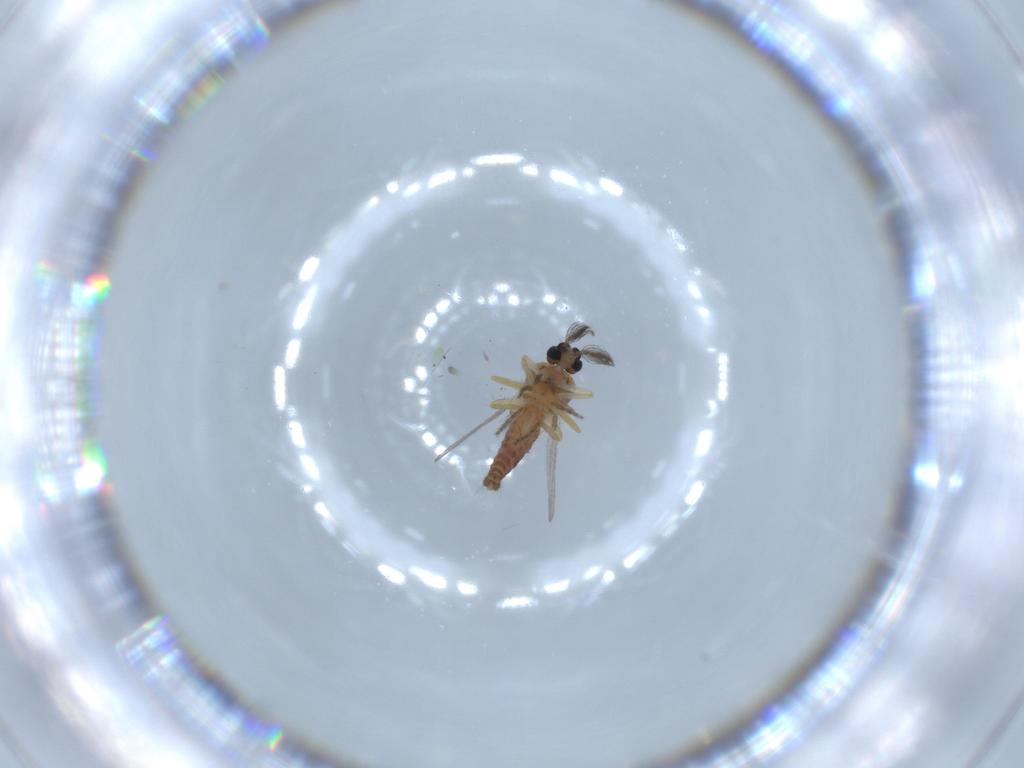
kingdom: Animalia
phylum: Arthropoda
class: Insecta
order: Diptera
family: Ceratopogonidae
